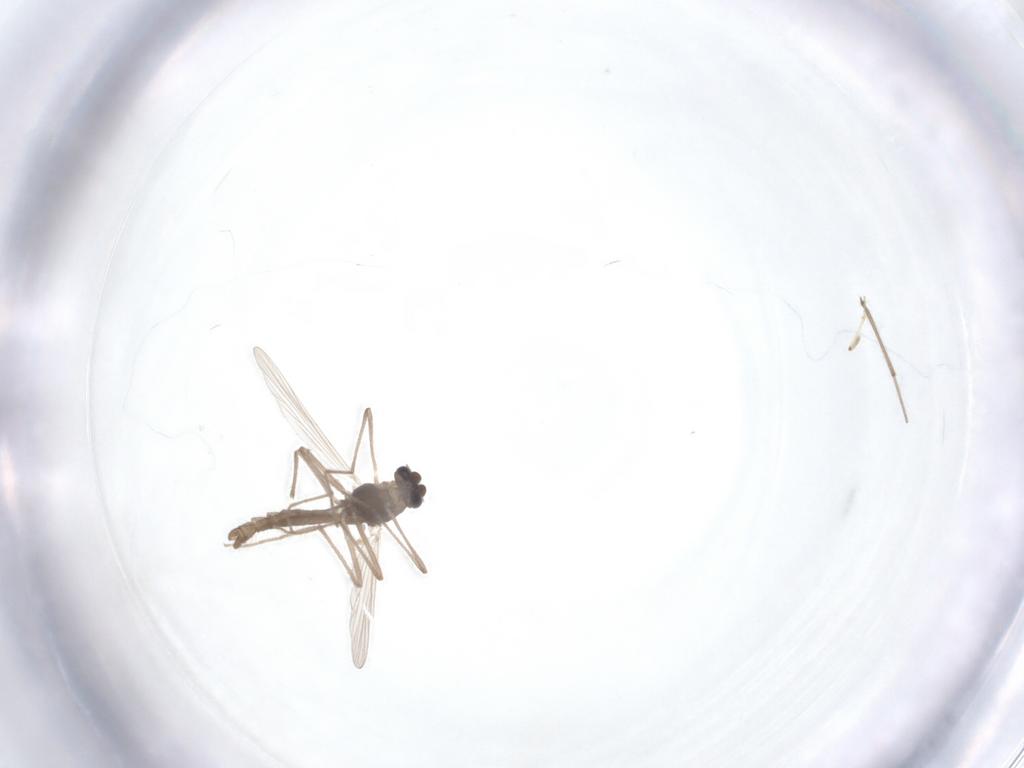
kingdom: Animalia
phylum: Arthropoda
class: Insecta
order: Diptera
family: Chironomidae
